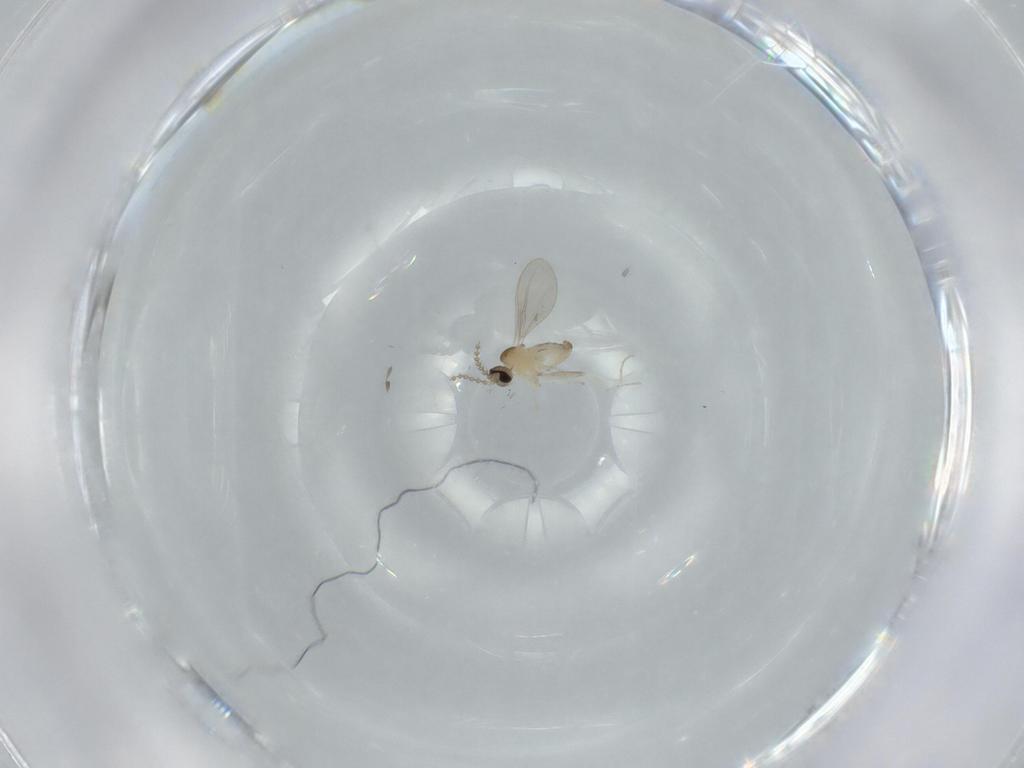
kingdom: Animalia
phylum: Arthropoda
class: Insecta
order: Diptera
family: Cecidomyiidae
